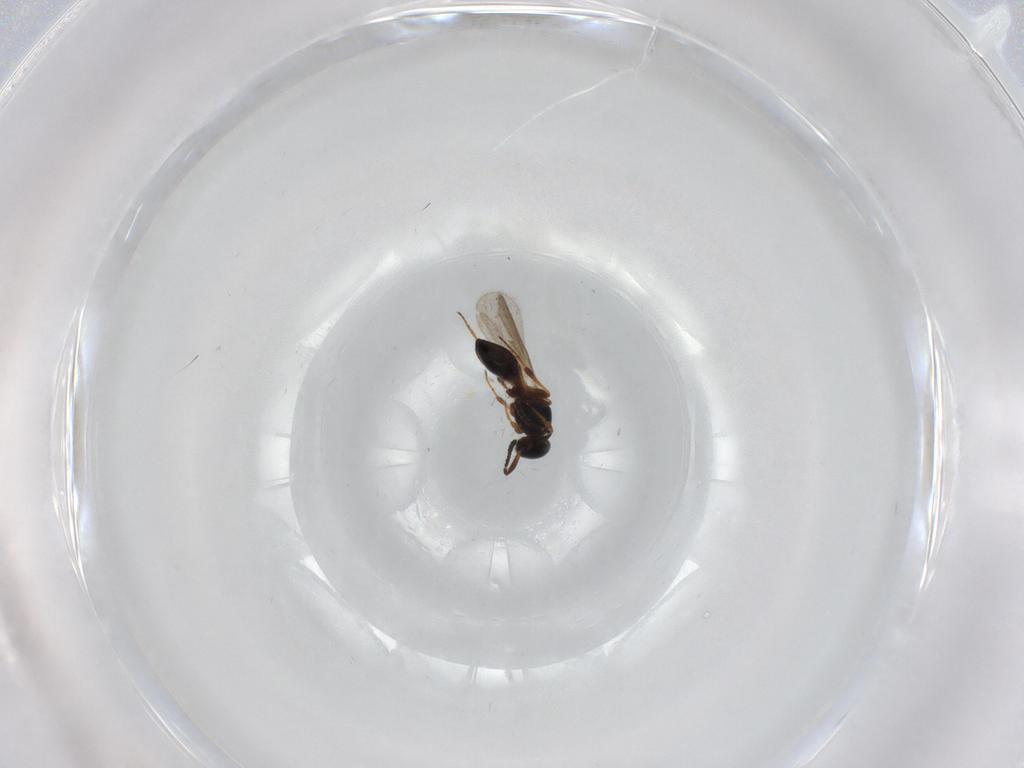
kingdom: Animalia
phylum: Arthropoda
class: Insecta
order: Hymenoptera
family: Platygastridae
